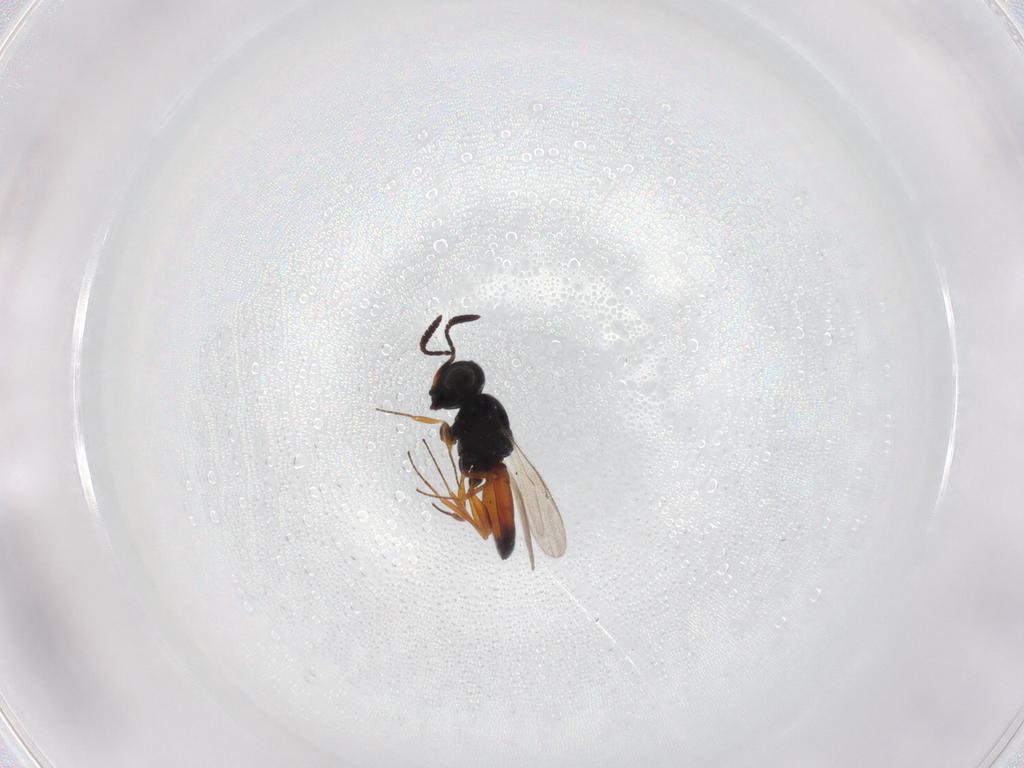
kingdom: Animalia
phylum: Arthropoda
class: Insecta
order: Hymenoptera
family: Scelionidae
